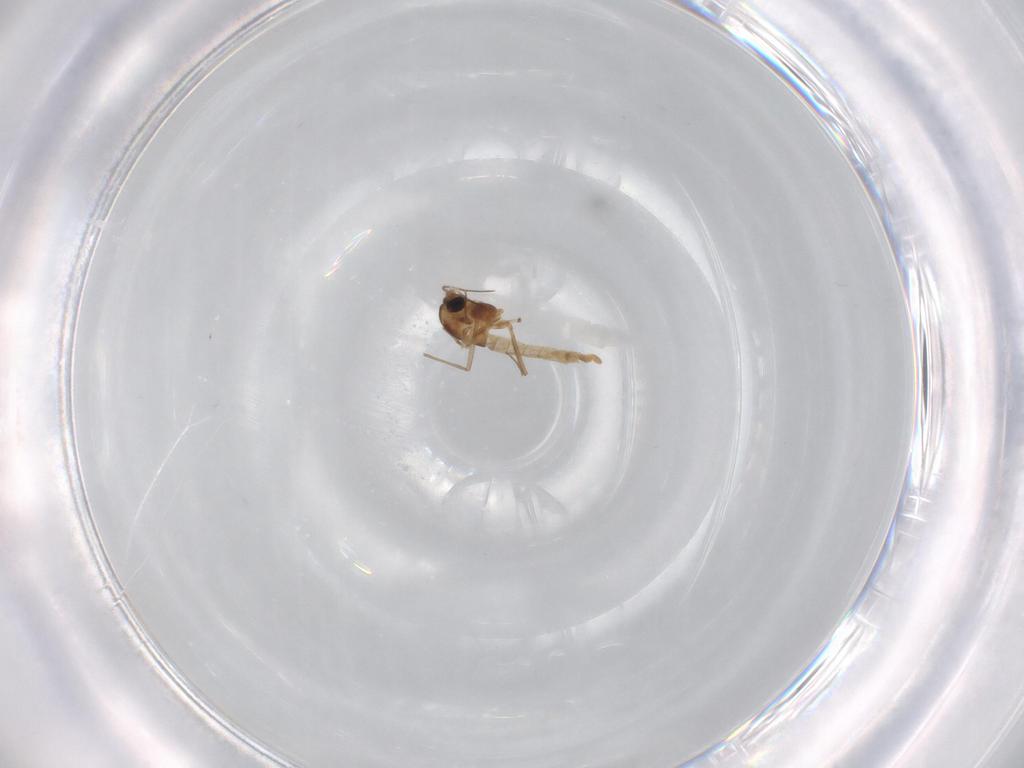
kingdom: Animalia
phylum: Arthropoda
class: Insecta
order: Diptera
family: Cecidomyiidae
